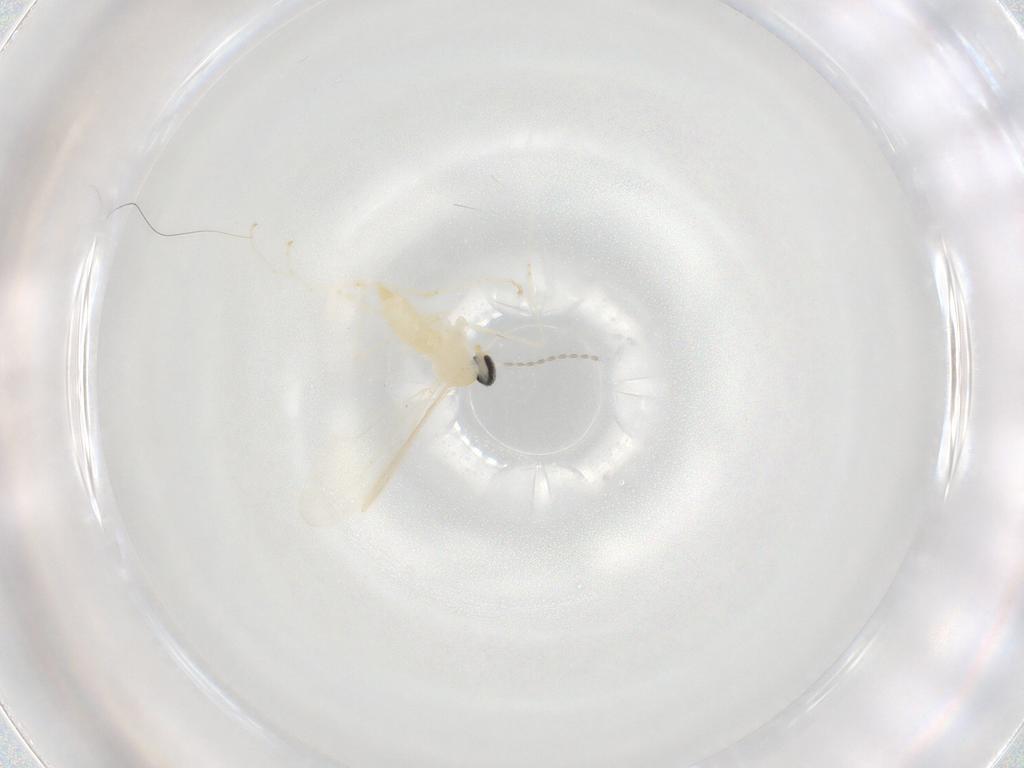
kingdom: Animalia
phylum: Arthropoda
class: Insecta
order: Diptera
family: Cecidomyiidae
